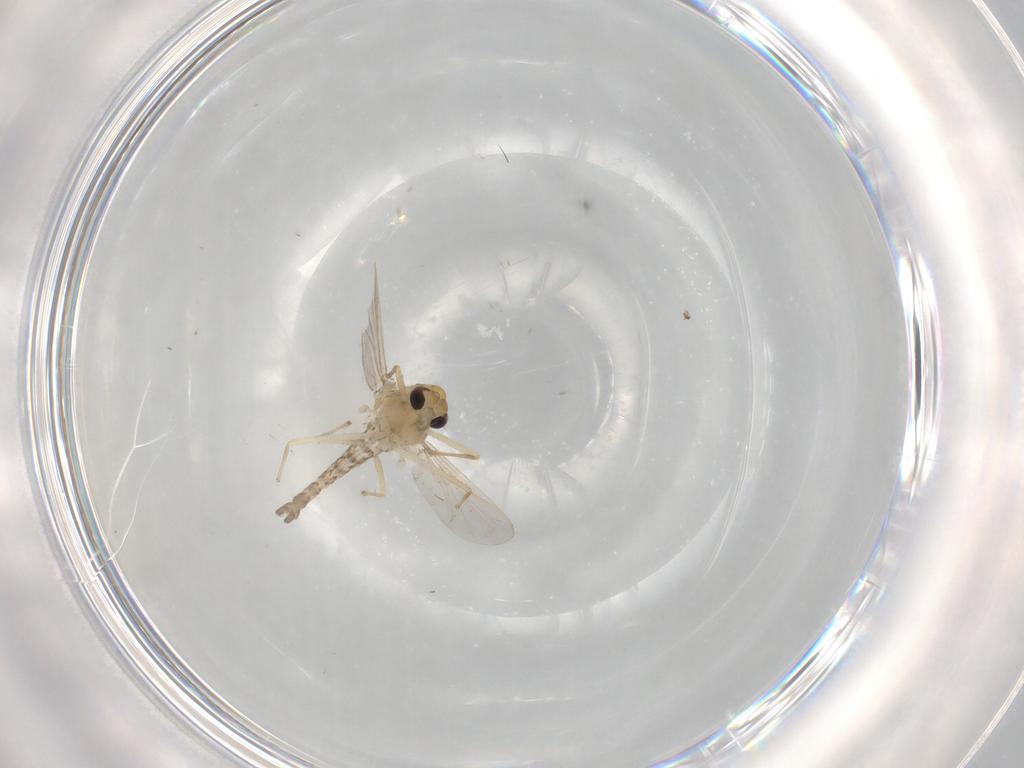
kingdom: Animalia
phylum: Arthropoda
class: Insecta
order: Diptera
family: Chironomidae
